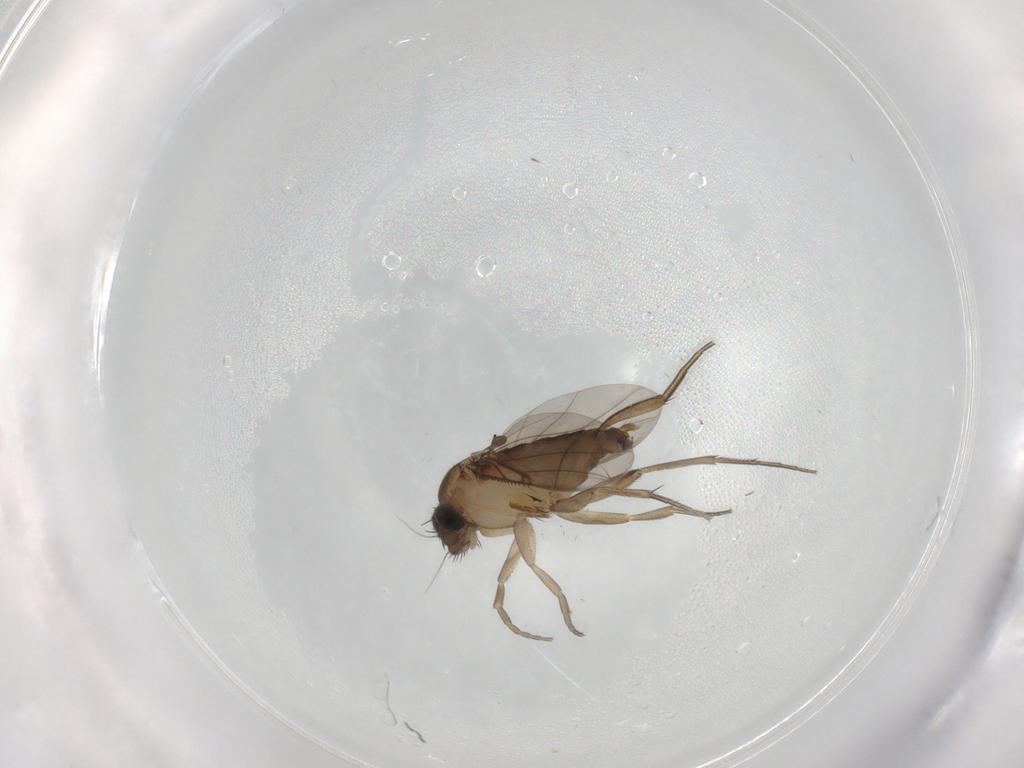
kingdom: Animalia
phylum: Arthropoda
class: Insecta
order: Diptera
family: Phoridae
